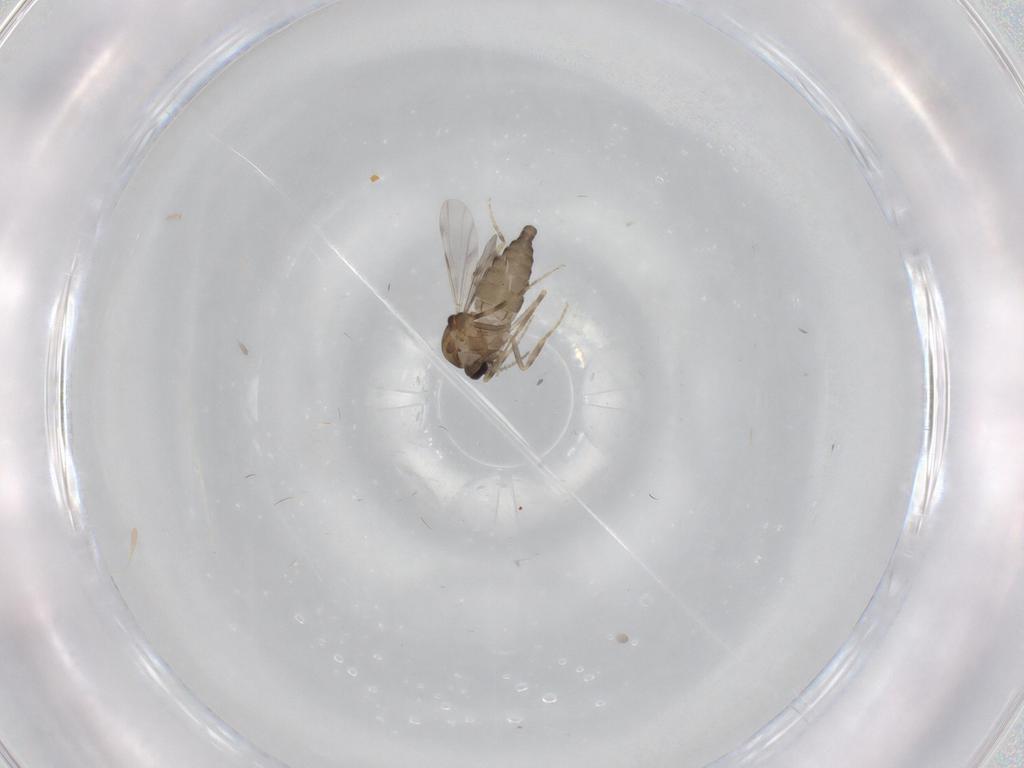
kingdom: Animalia
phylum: Arthropoda
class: Insecta
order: Diptera
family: Ceratopogonidae
